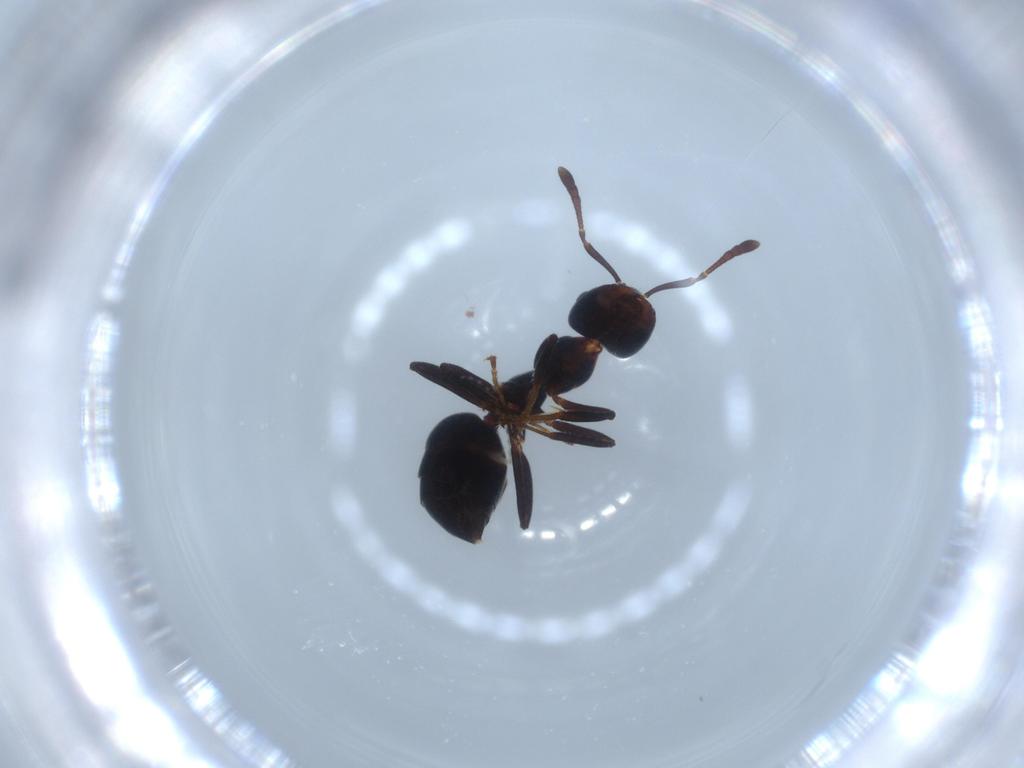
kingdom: Animalia
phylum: Arthropoda
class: Insecta
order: Hymenoptera
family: Formicidae
